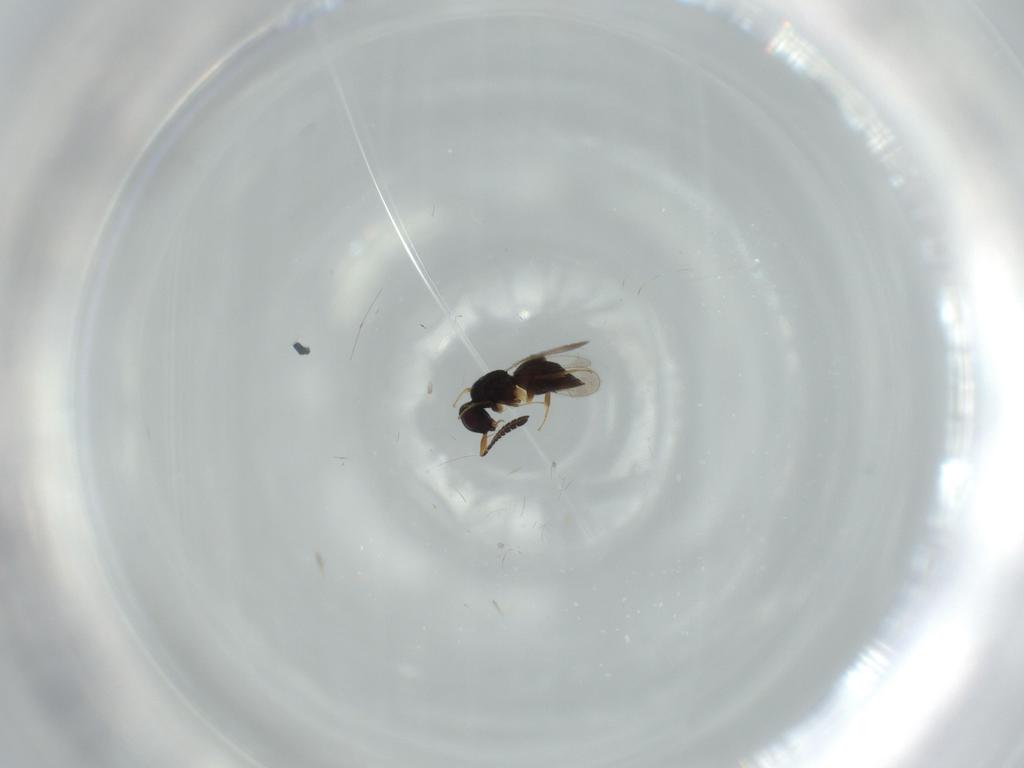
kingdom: Animalia
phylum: Arthropoda
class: Insecta
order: Hymenoptera
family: Ceraphronidae
